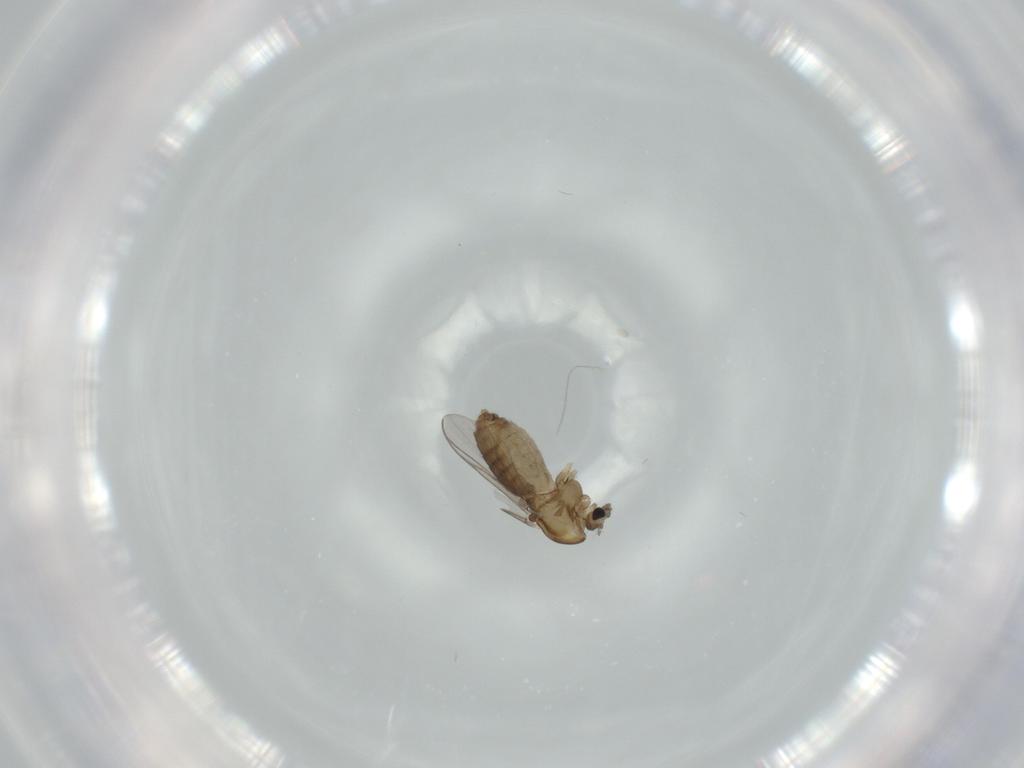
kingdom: Animalia
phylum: Arthropoda
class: Insecta
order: Diptera
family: Chironomidae
